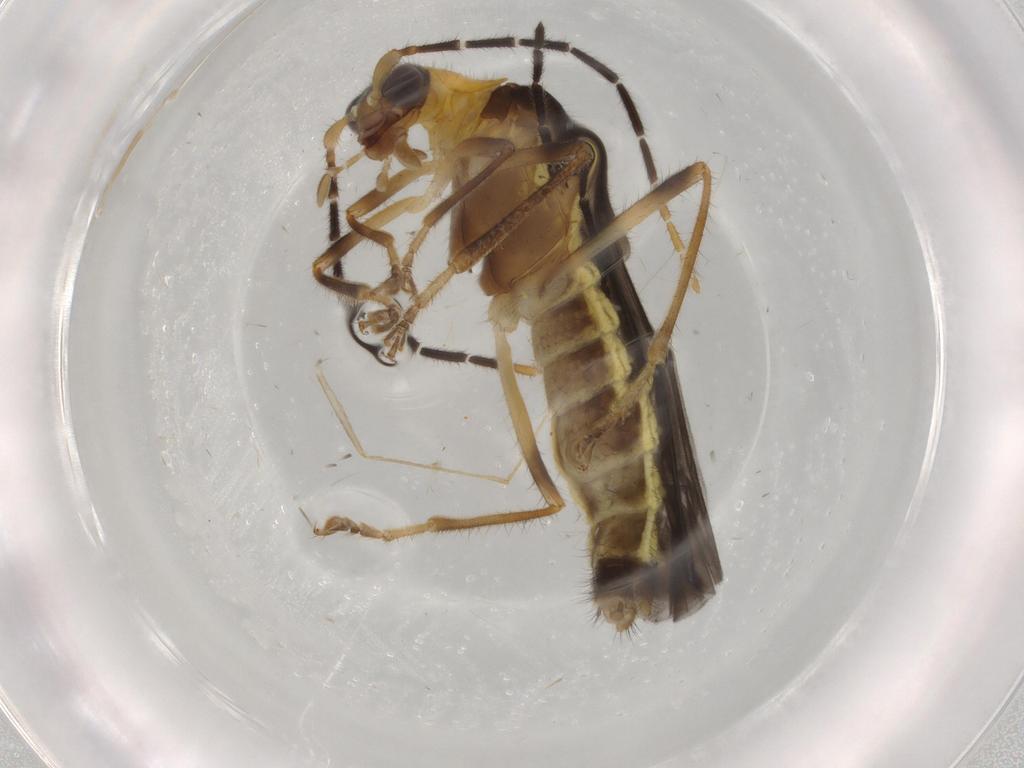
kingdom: Animalia
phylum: Arthropoda
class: Insecta
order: Coleoptera
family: Chrysomelidae
